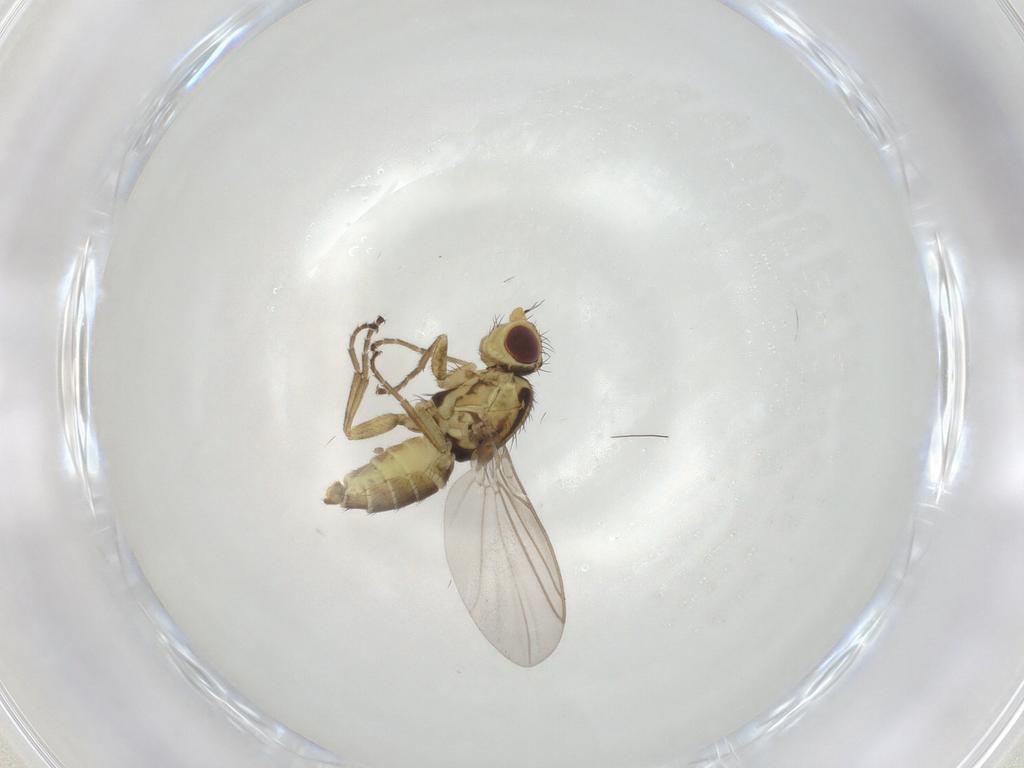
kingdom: Animalia
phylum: Arthropoda
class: Insecta
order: Diptera
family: Agromyzidae
